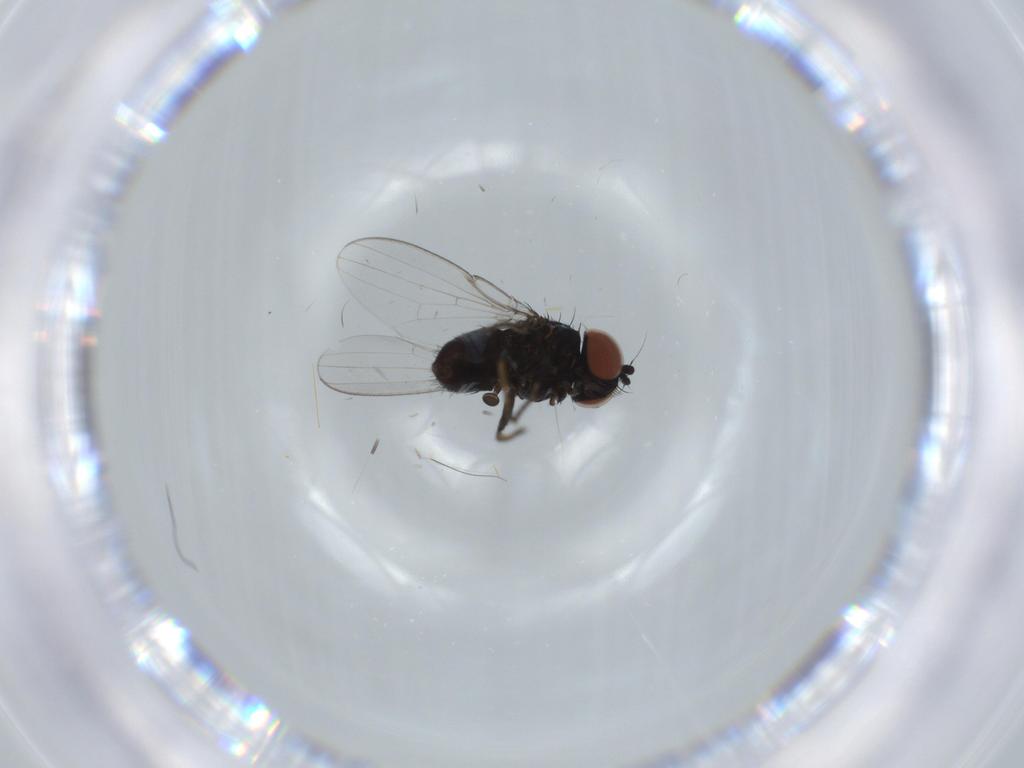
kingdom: Animalia
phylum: Arthropoda
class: Insecta
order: Diptera
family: Milichiidae
